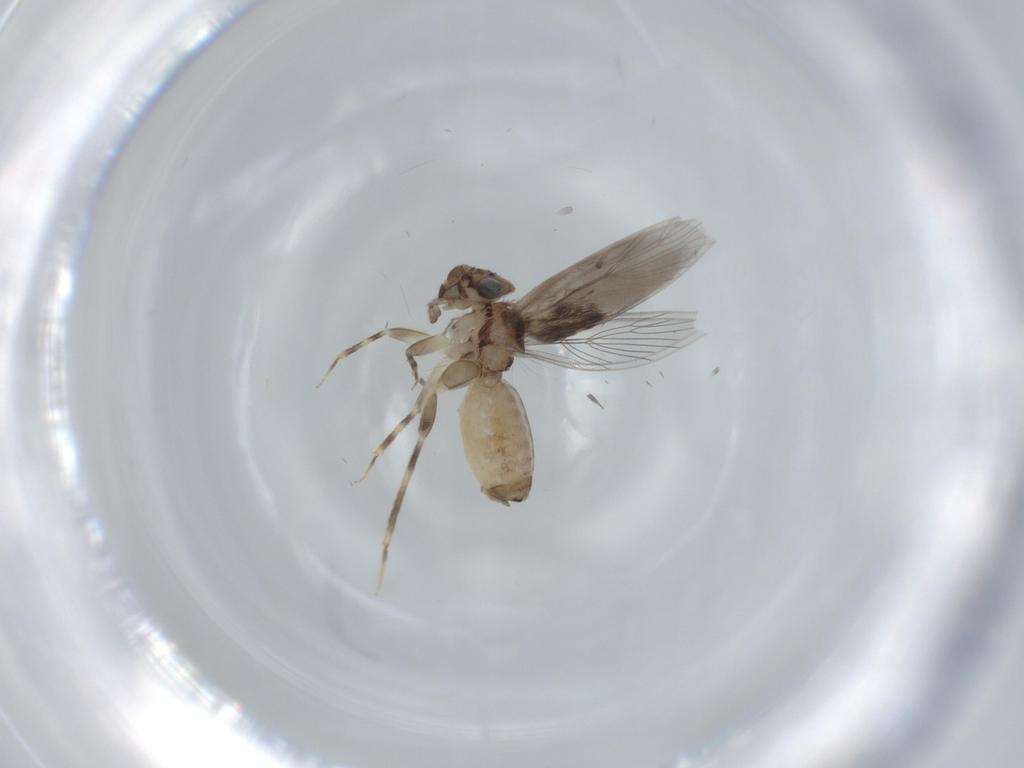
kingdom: Animalia
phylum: Arthropoda
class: Insecta
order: Psocodea
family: Lepidopsocidae
